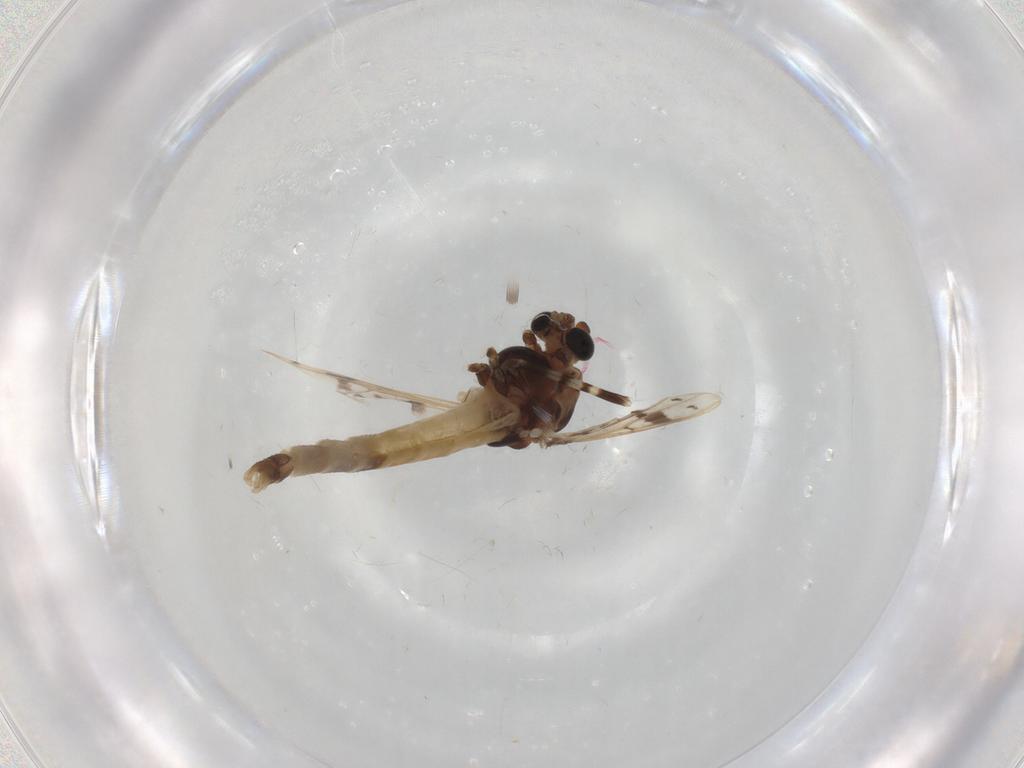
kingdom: Animalia
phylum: Arthropoda
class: Insecta
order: Diptera
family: Chironomidae
